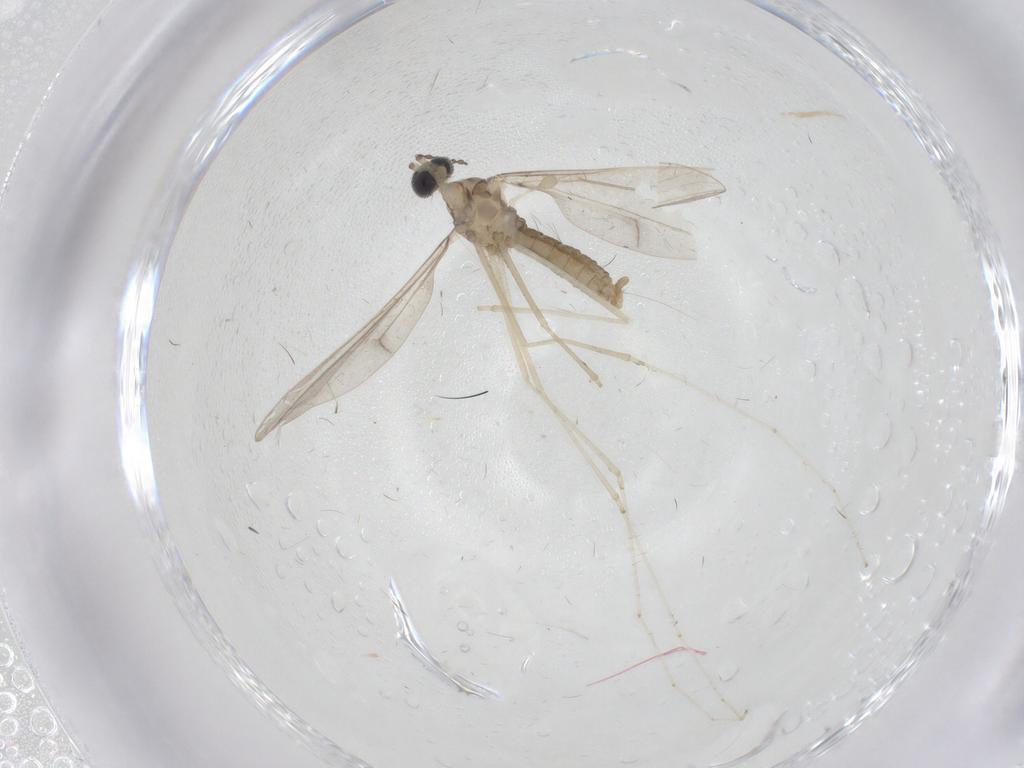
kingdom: Animalia
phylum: Arthropoda
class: Insecta
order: Diptera
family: Cecidomyiidae
